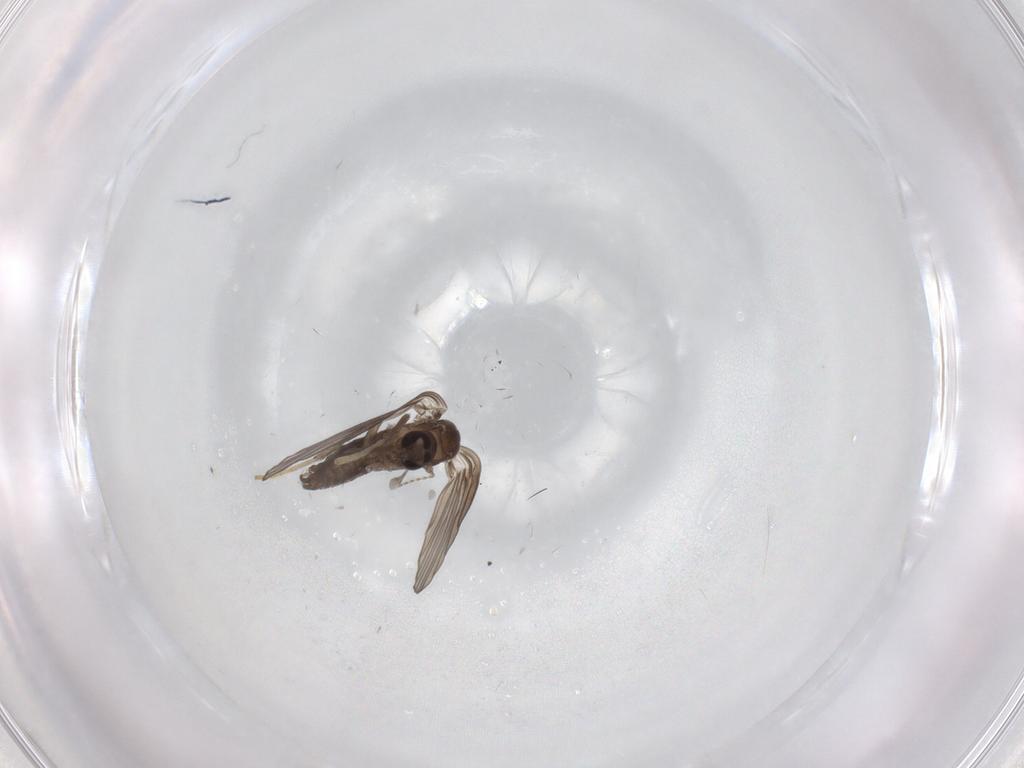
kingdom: Animalia
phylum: Arthropoda
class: Insecta
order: Diptera
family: Psychodidae
